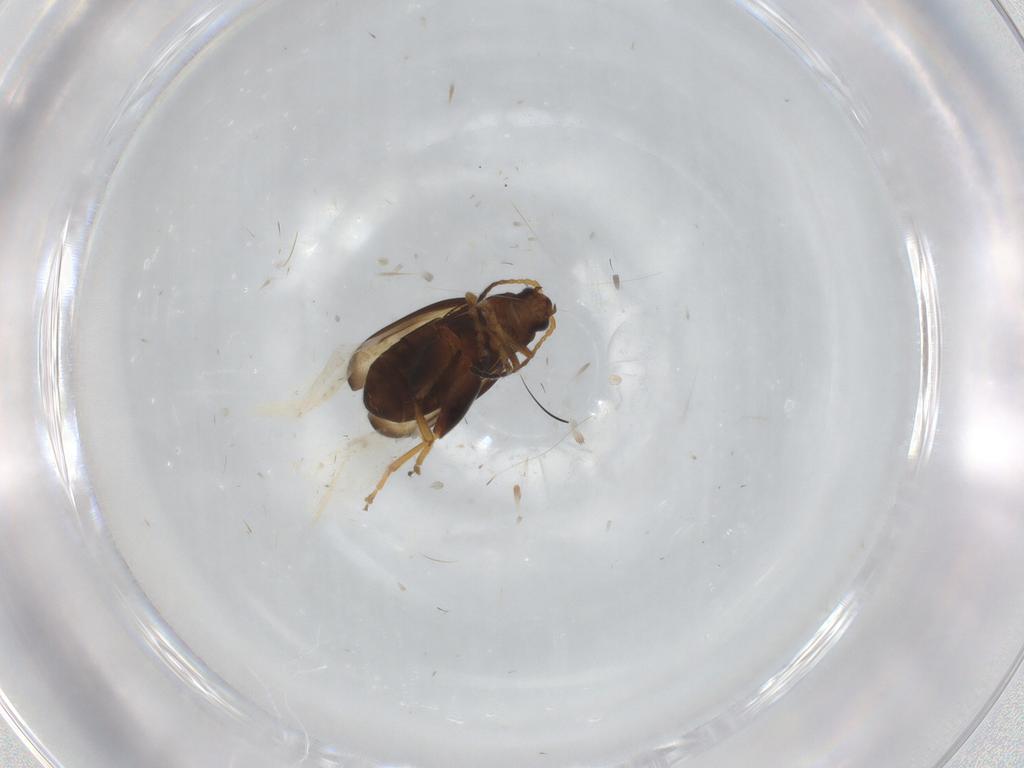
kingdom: Animalia
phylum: Arthropoda
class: Insecta
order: Coleoptera
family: Chrysomelidae
